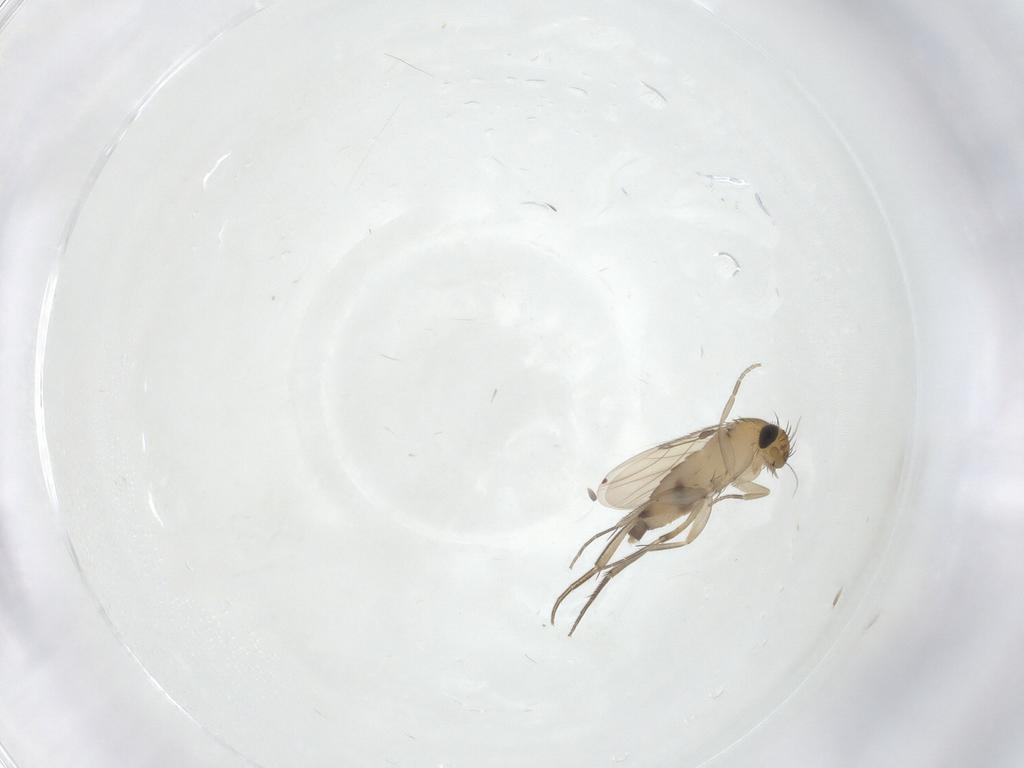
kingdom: Animalia
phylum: Arthropoda
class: Insecta
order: Diptera
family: Phoridae
